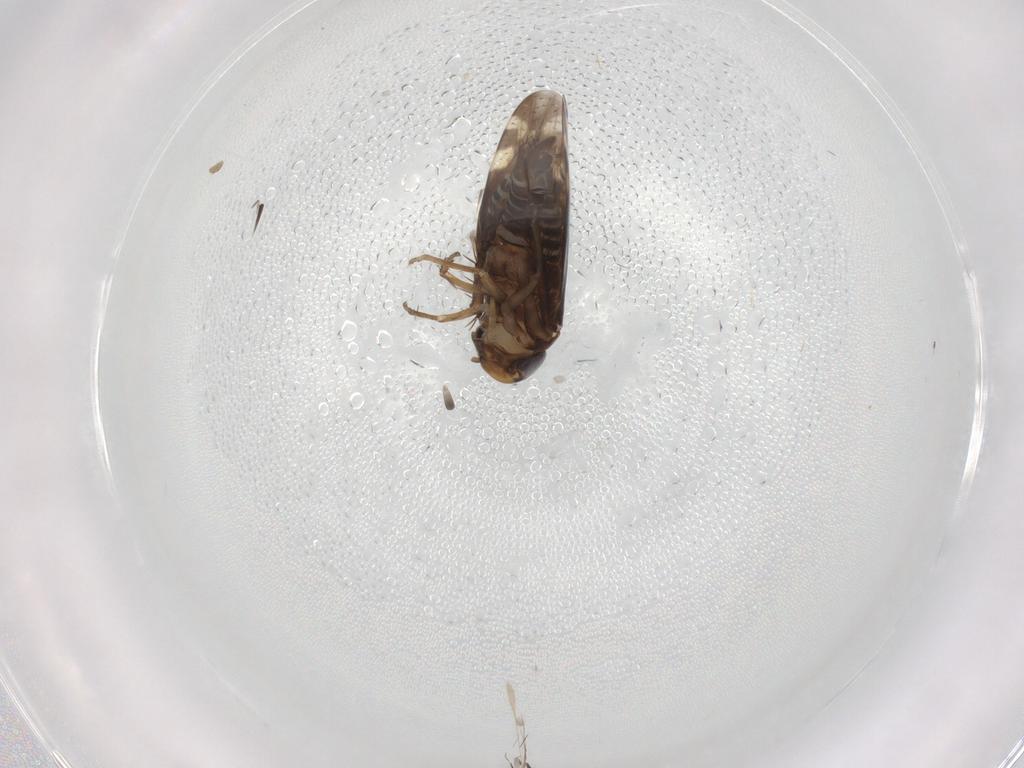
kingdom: Animalia
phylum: Arthropoda
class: Insecta
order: Hemiptera
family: Cicadellidae
